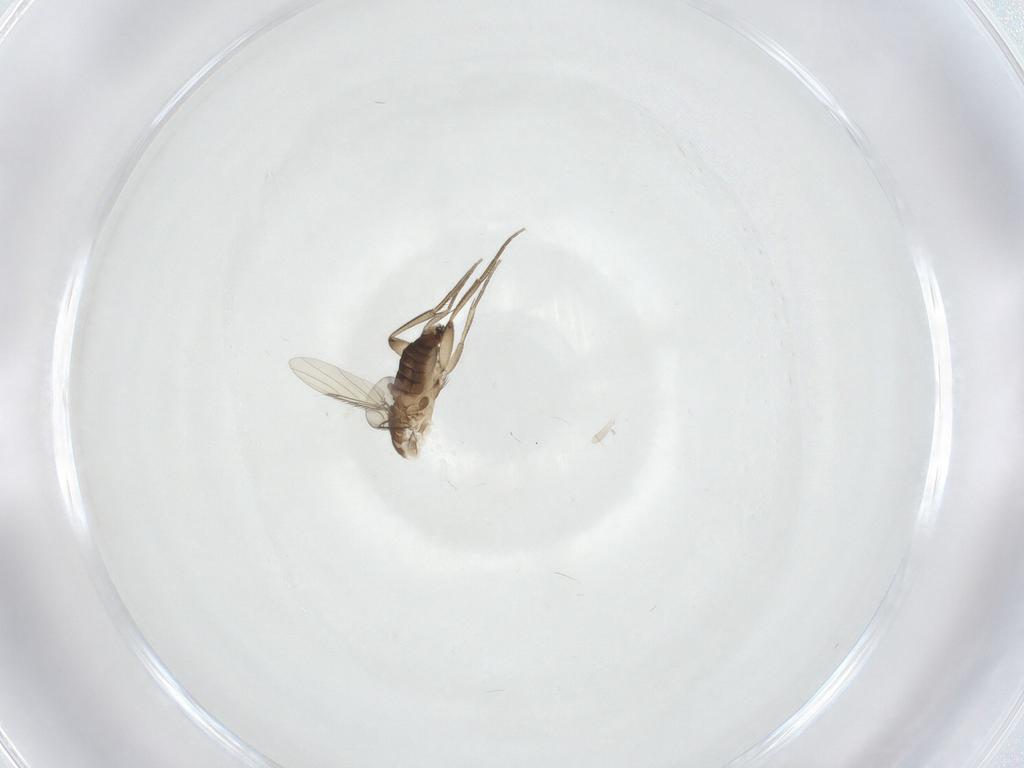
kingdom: Animalia
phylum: Arthropoda
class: Insecta
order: Diptera
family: Phoridae
